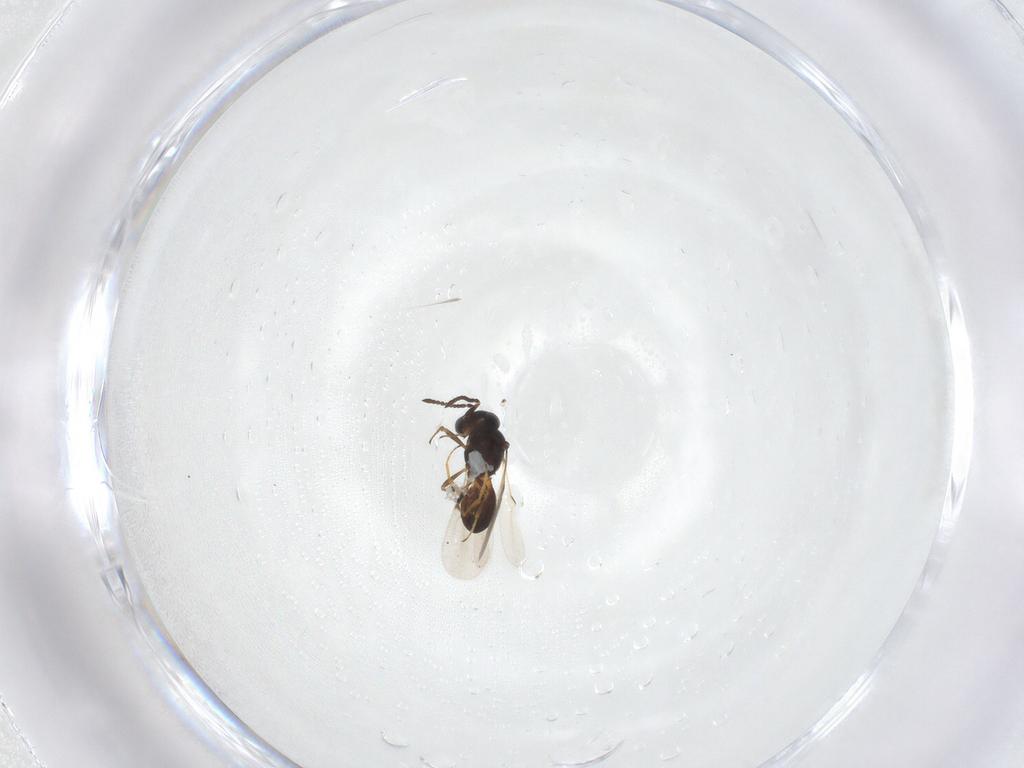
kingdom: Animalia
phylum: Arthropoda
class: Insecta
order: Hymenoptera
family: Scelionidae
